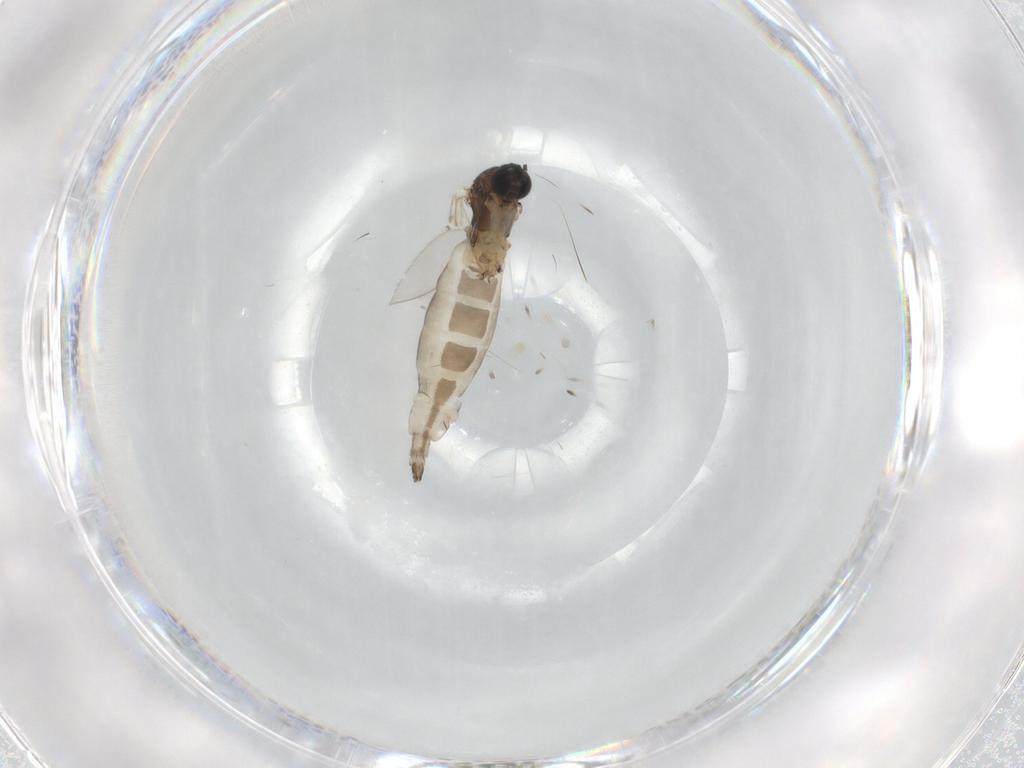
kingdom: Animalia
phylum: Arthropoda
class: Insecta
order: Diptera
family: Sciaridae
